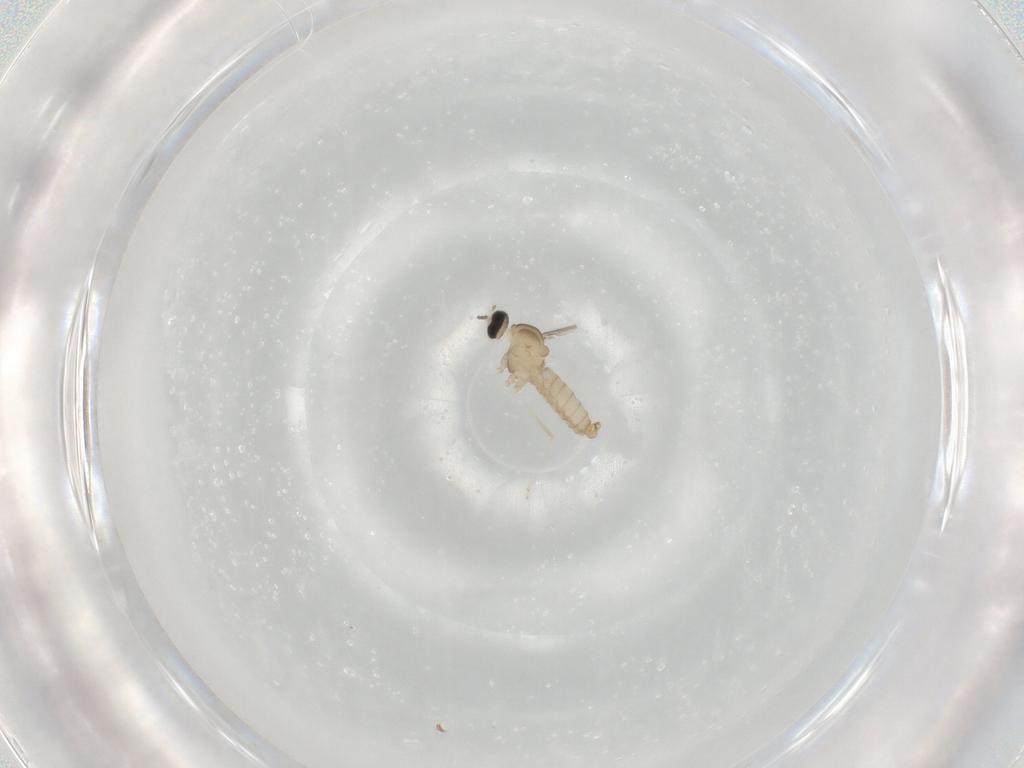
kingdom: Animalia
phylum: Arthropoda
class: Insecta
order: Diptera
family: Cecidomyiidae
